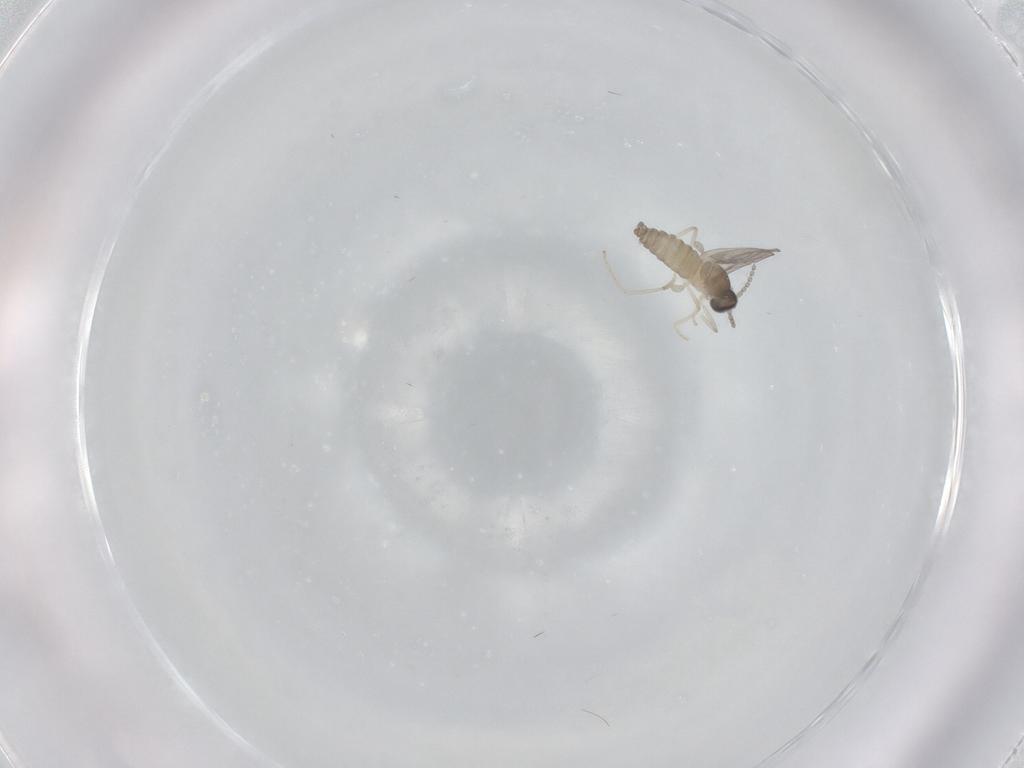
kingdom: Animalia
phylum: Arthropoda
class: Insecta
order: Diptera
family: Cecidomyiidae
